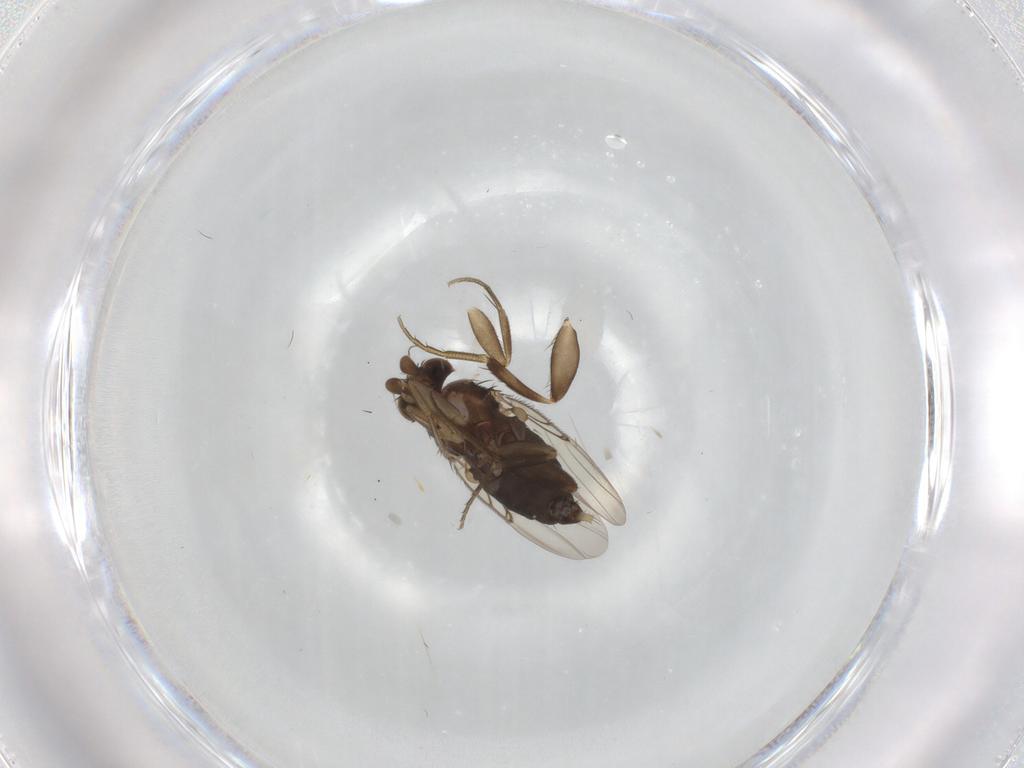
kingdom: Animalia
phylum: Arthropoda
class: Insecta
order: Diptera
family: Phoridae
